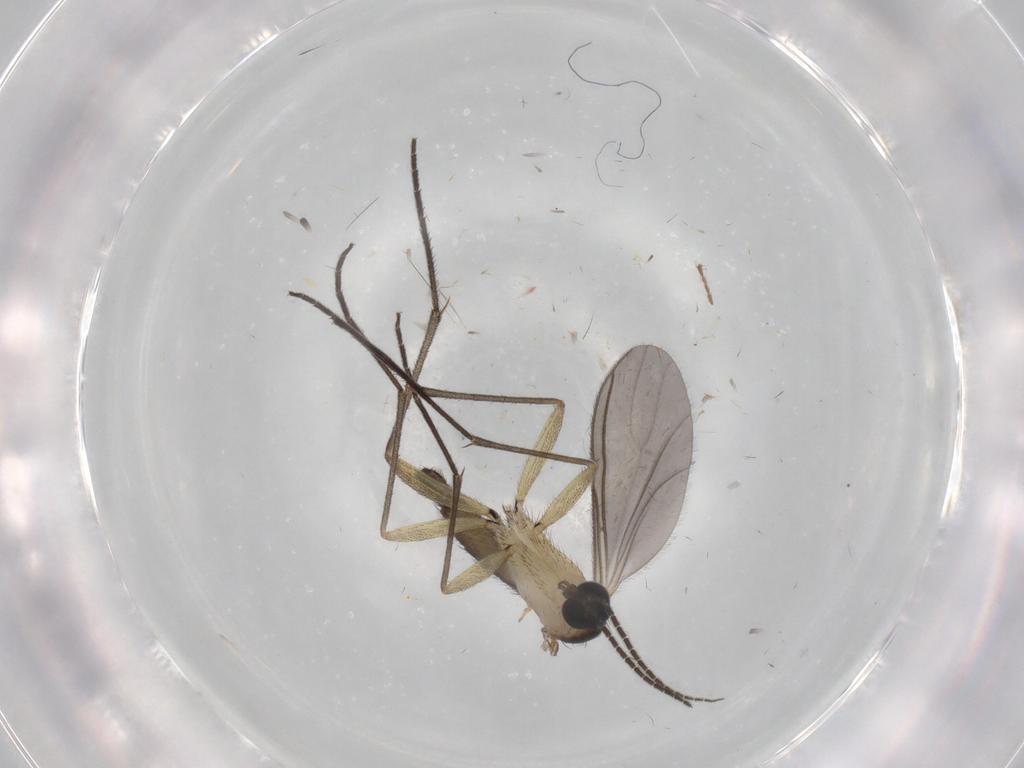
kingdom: Animalia
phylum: Arthropoda
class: Insecta
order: Diptera
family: Sciaridae
